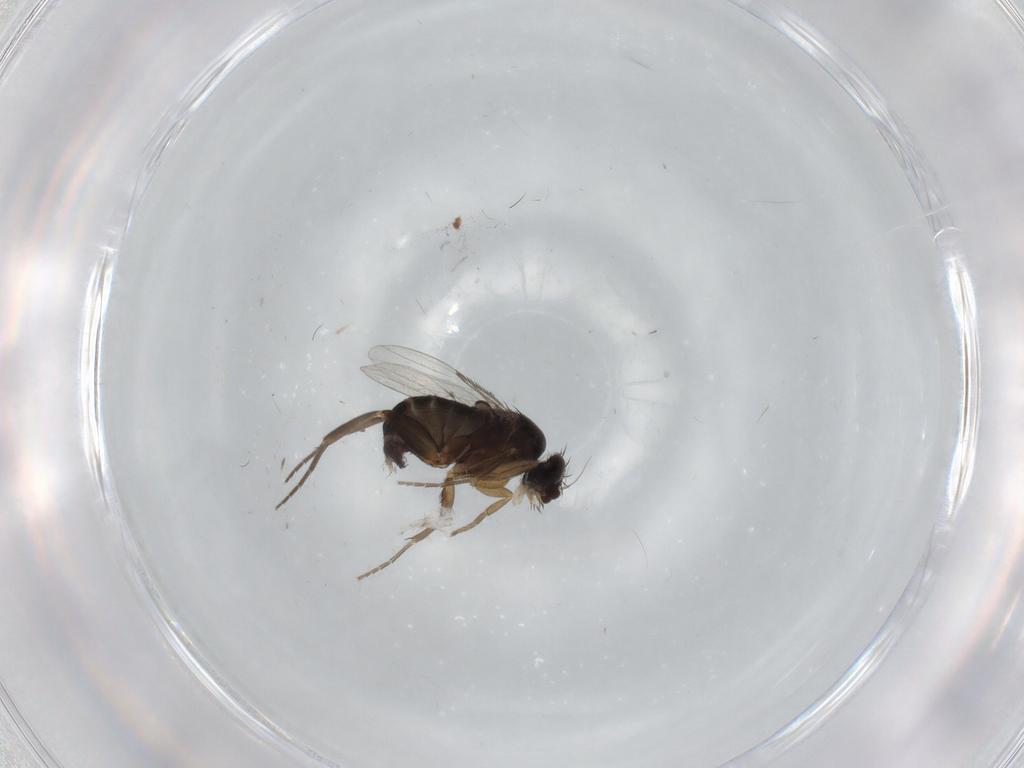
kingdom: Animalia
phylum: Arthropoda
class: Insecta
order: Diptera
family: Phoridae
